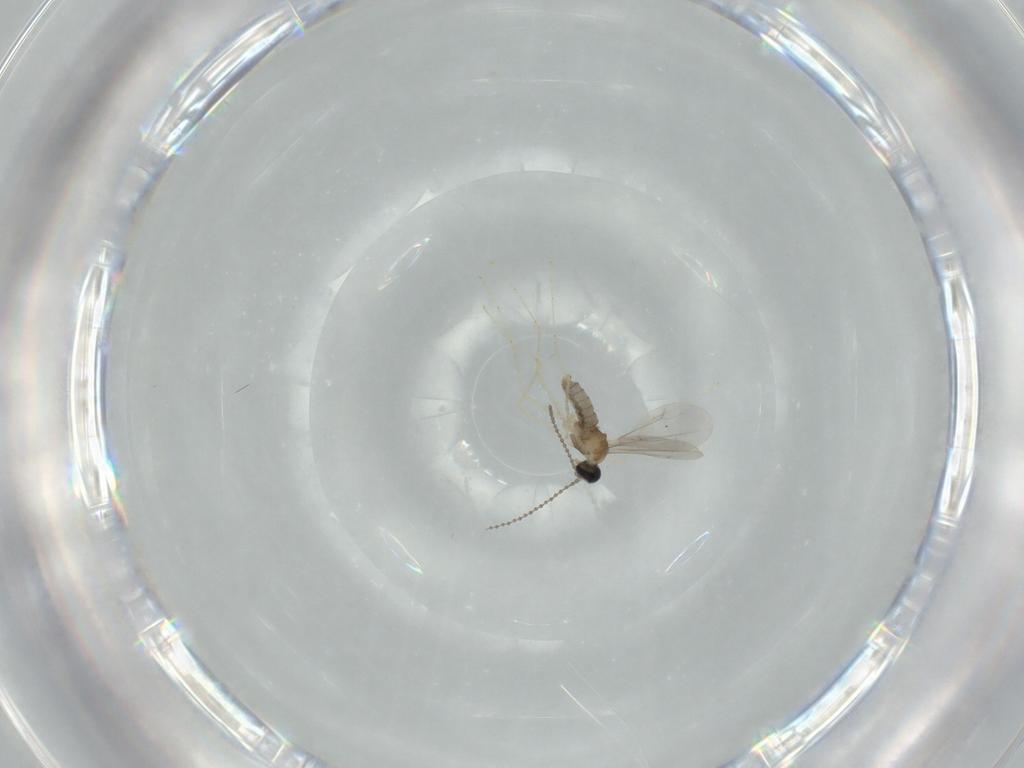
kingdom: Animalia
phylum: Arthropoda
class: Insecta
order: Diptera
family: Cecidomyiidae
